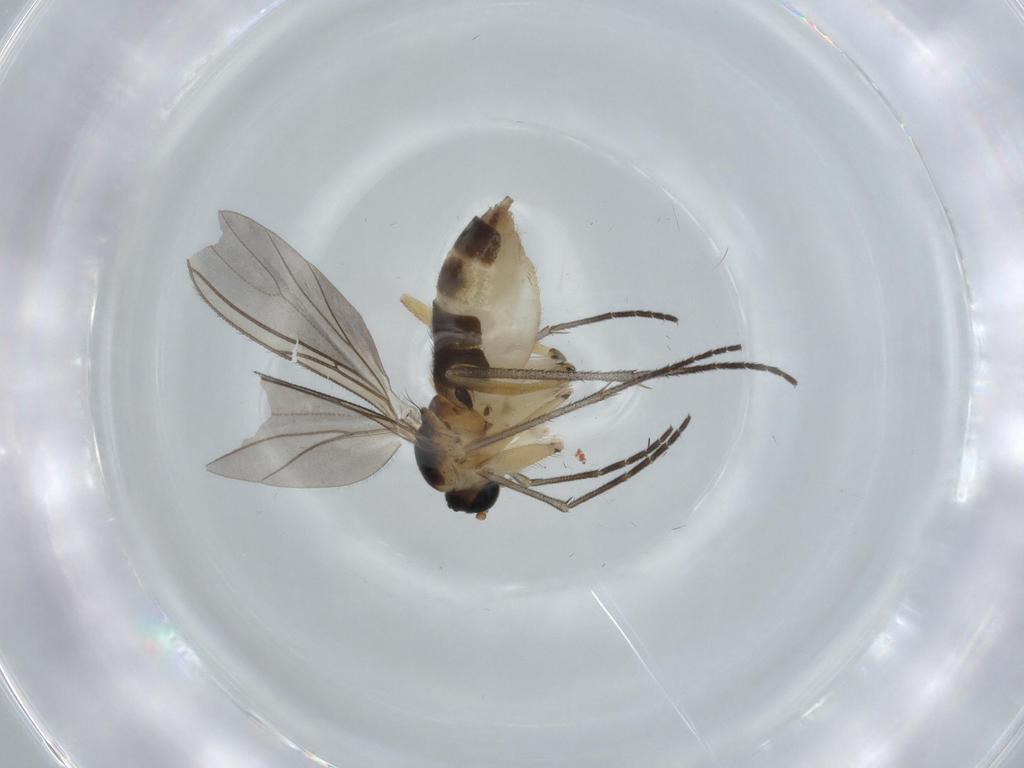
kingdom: Animalia
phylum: Arthropoda
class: Insecta
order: Diptera
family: Sciaridae
